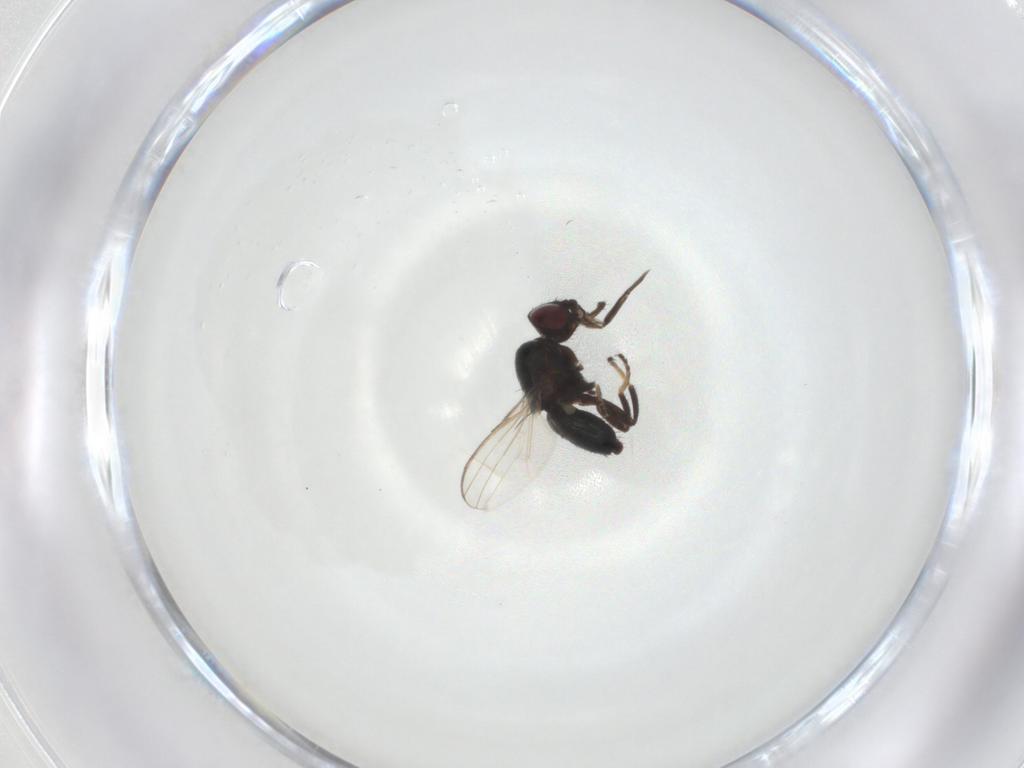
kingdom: Animalia
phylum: Arthropoda
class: Insecta
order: Diptera
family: Milichiidae
